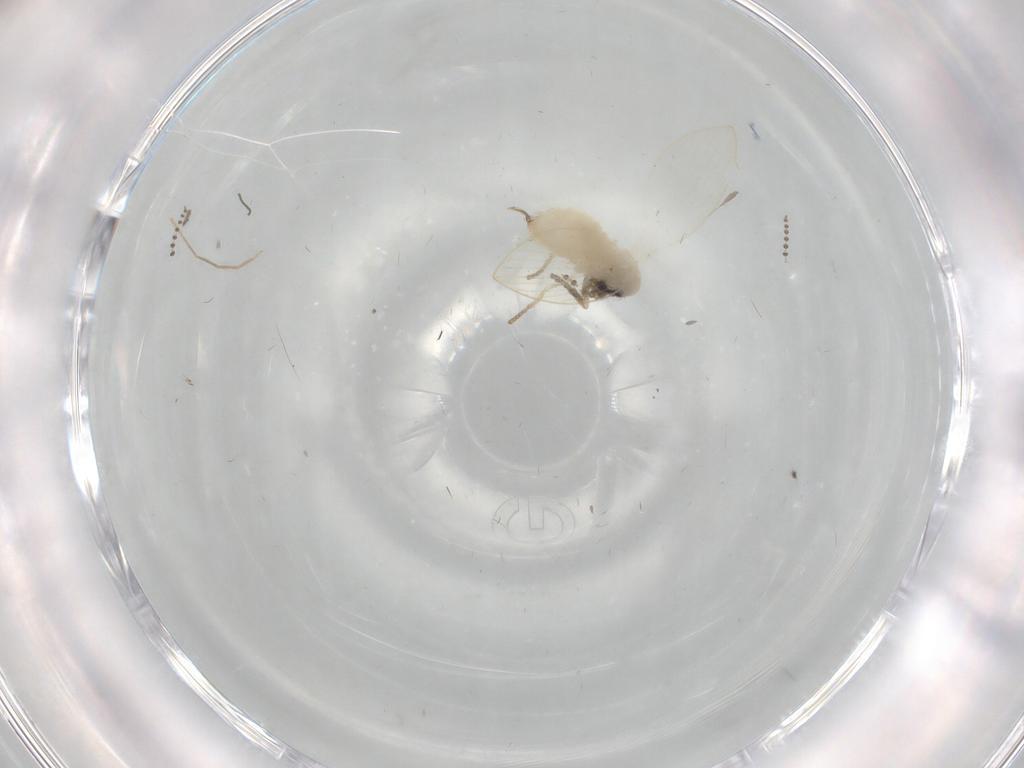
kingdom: Animalia
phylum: Arthropoda
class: Insecta
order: Diptera
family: Psychodidae
